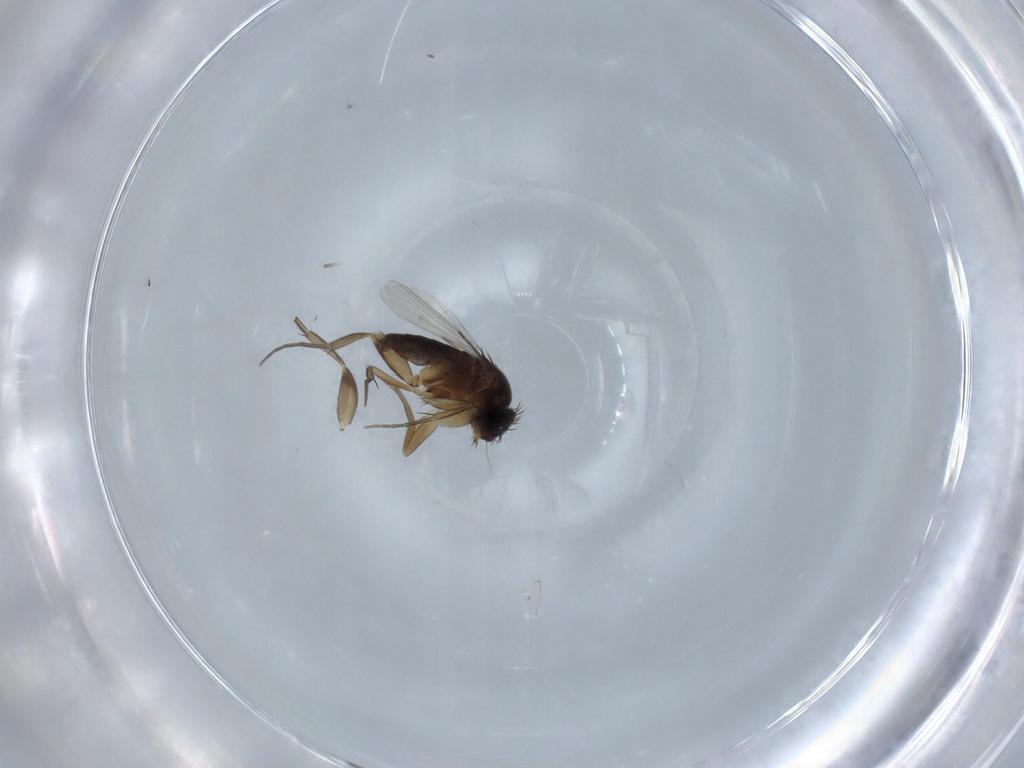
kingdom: Animalia
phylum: Arthropoda
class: Insecta
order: Diptera
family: Phoridae
